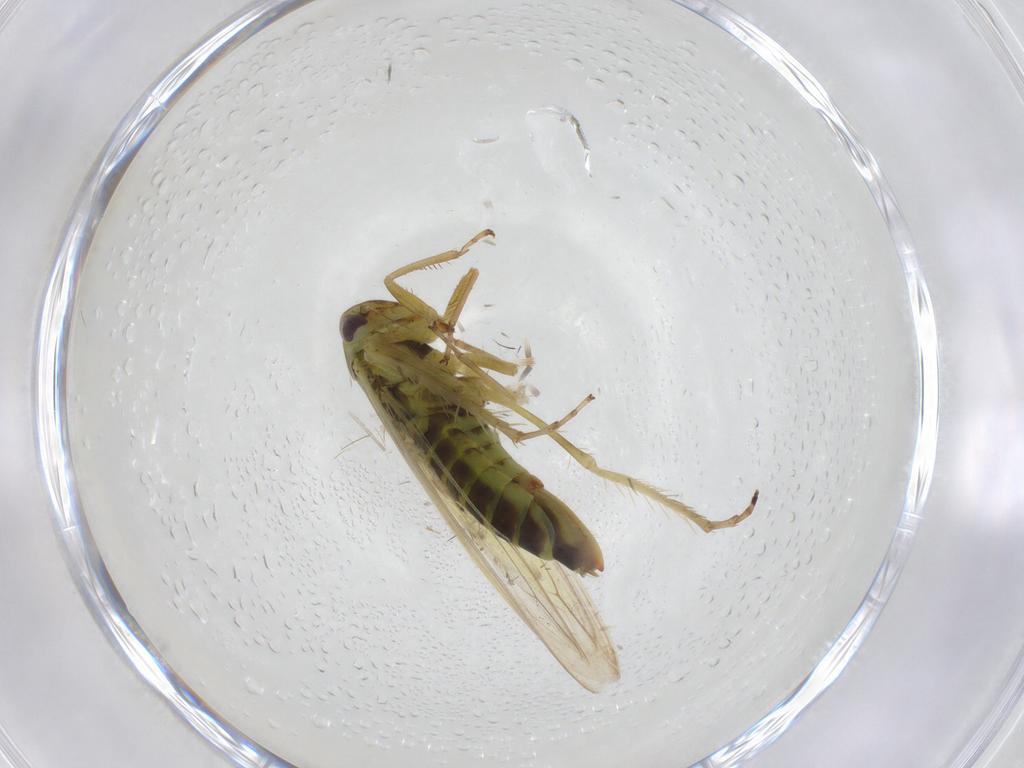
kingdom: Animalia
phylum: Arthropoda
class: Insecta
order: Hemiptera
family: Cicadellidae
